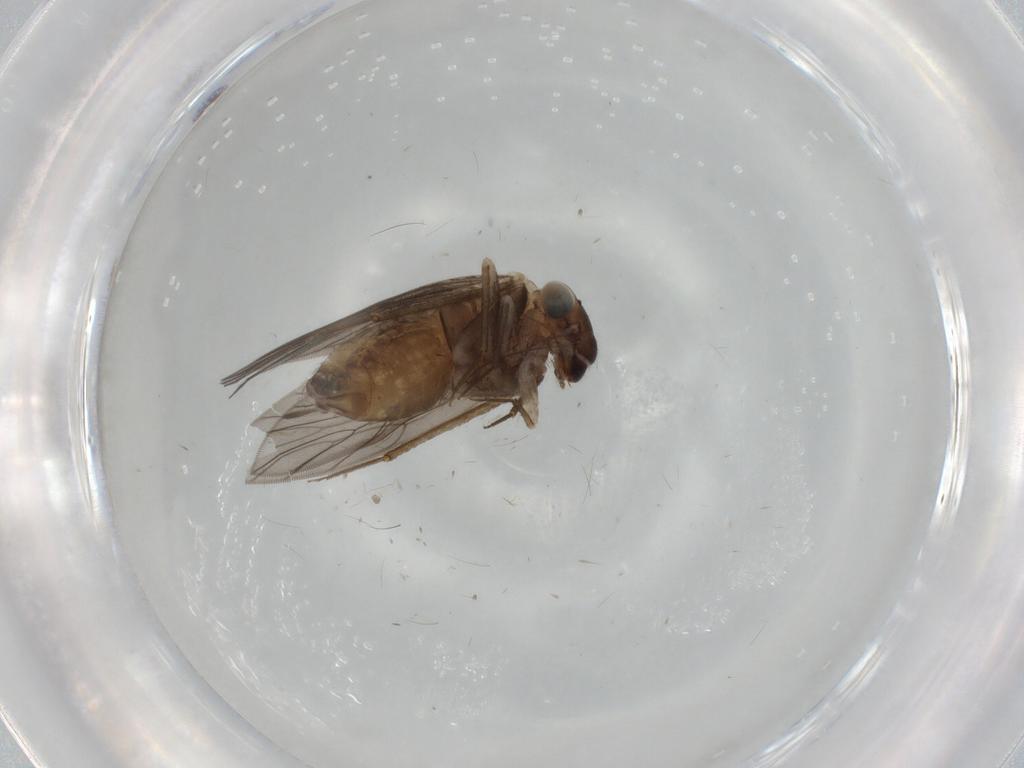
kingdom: Animalia
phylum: Arthropoda
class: Insecta
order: Psocodea
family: Lepidopsocidae
